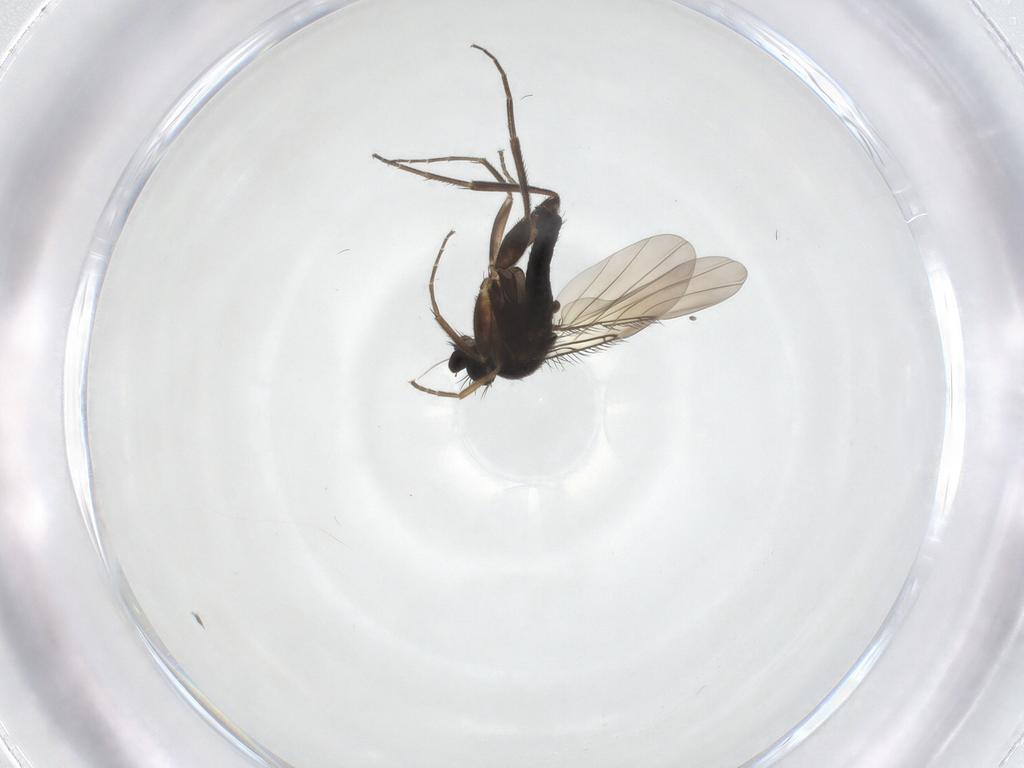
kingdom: Animalia
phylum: Arthropoda
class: Insecta
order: Diptera
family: Phoridae
